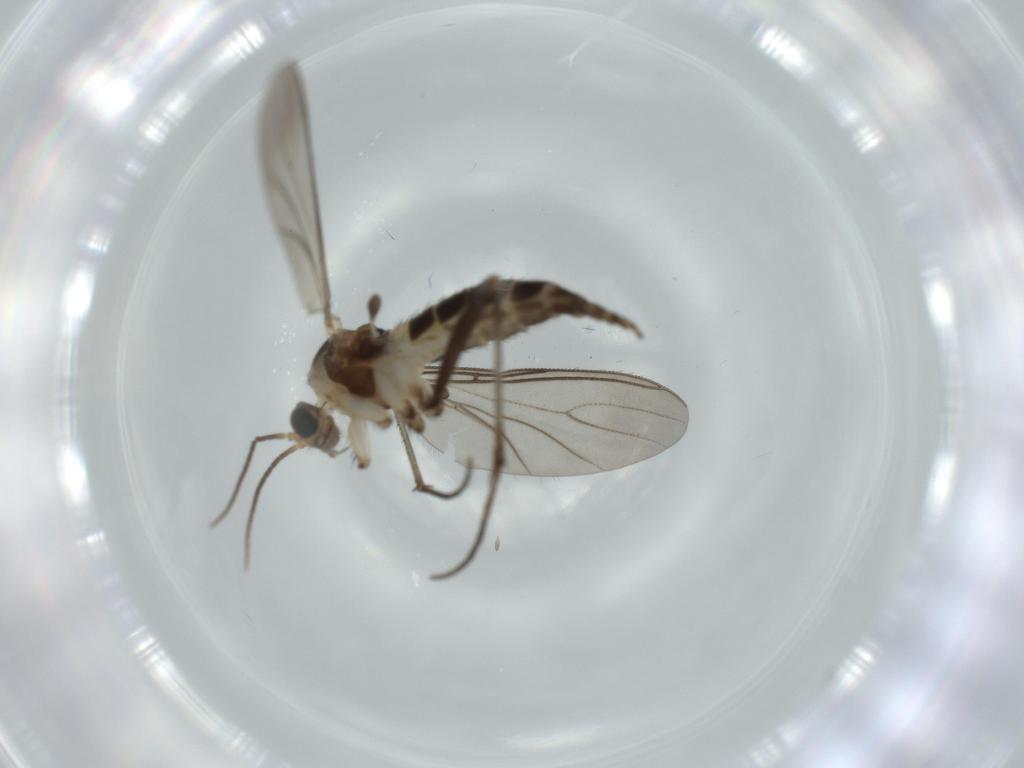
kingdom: Animalia
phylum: Arthropoda
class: Insecta
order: Diptera
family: Sciaridae
